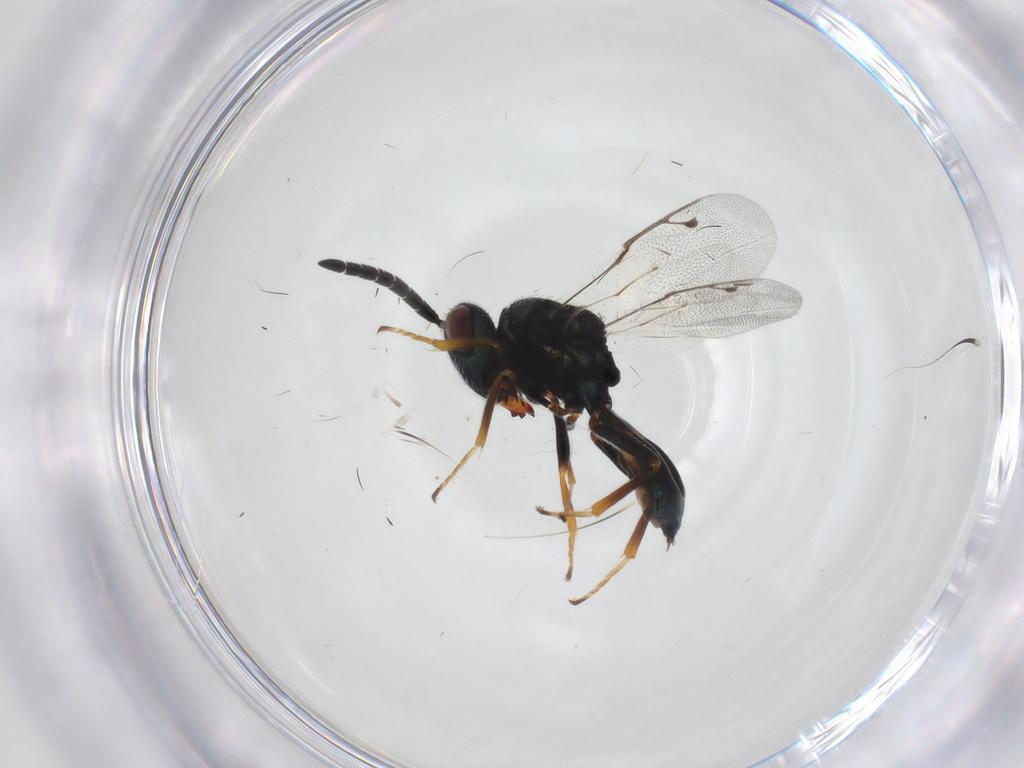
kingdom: Animalia
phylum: Arthropoda
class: Insecta
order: Hymenoptera
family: Pteromalidae
